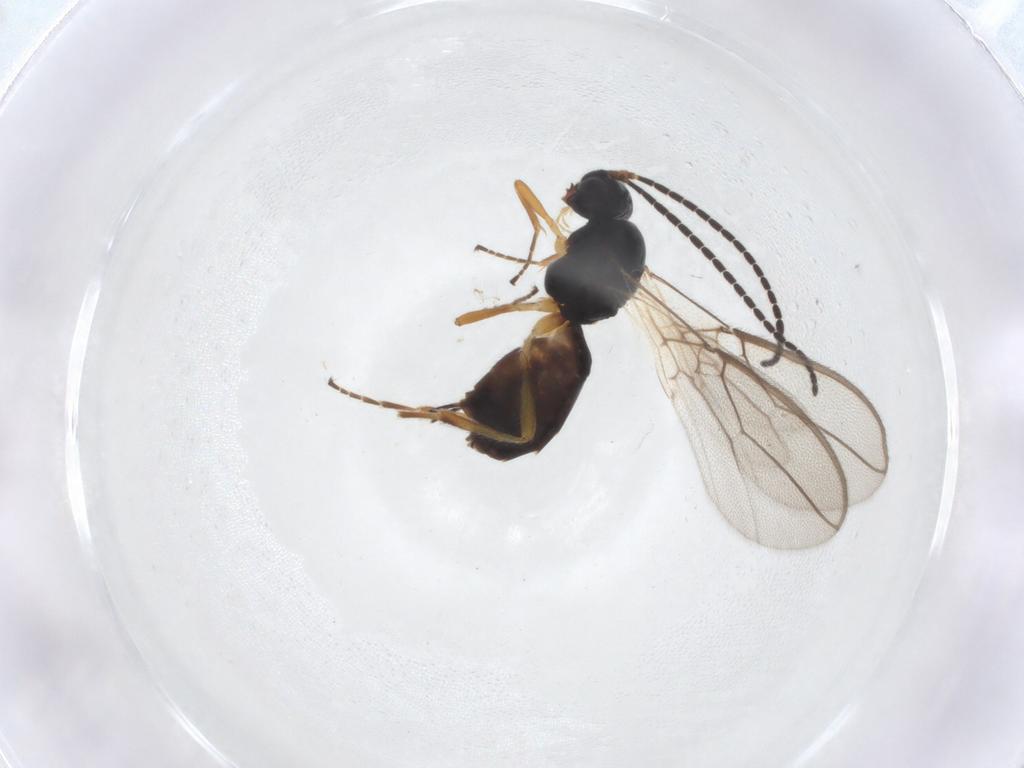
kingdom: Animalia
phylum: Arthropoda
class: Insecta
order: Hymenoptera
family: Braconidae
